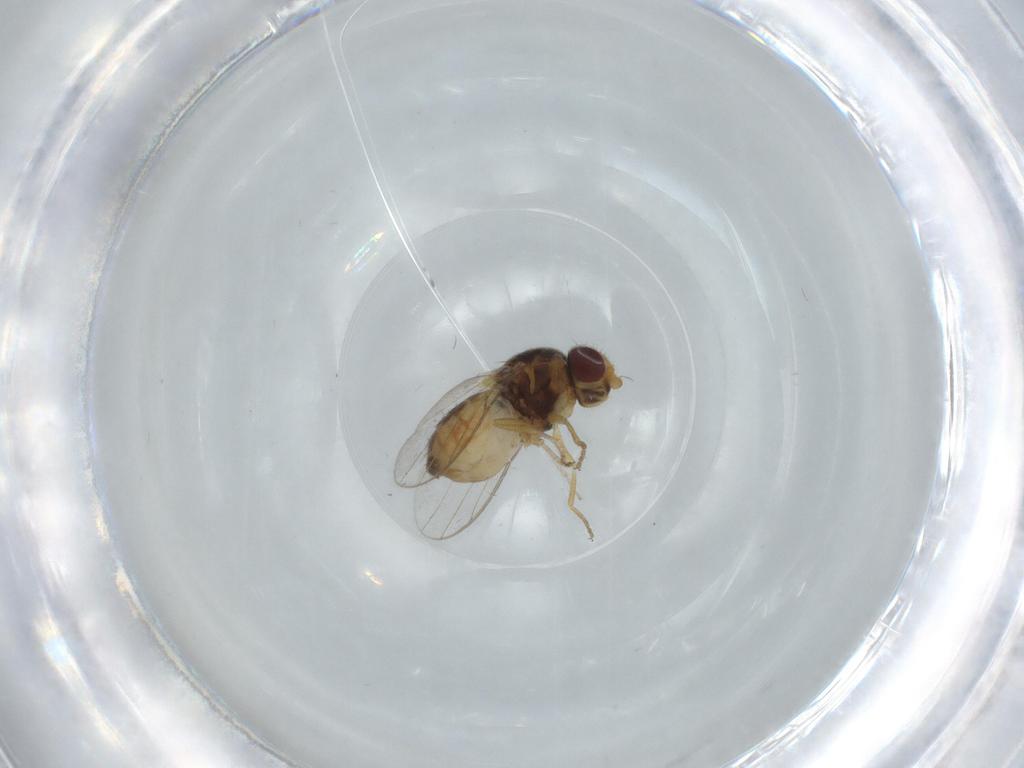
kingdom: Animalia
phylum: Arthropoda
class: Insecta
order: Diptera
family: Chloropidae
